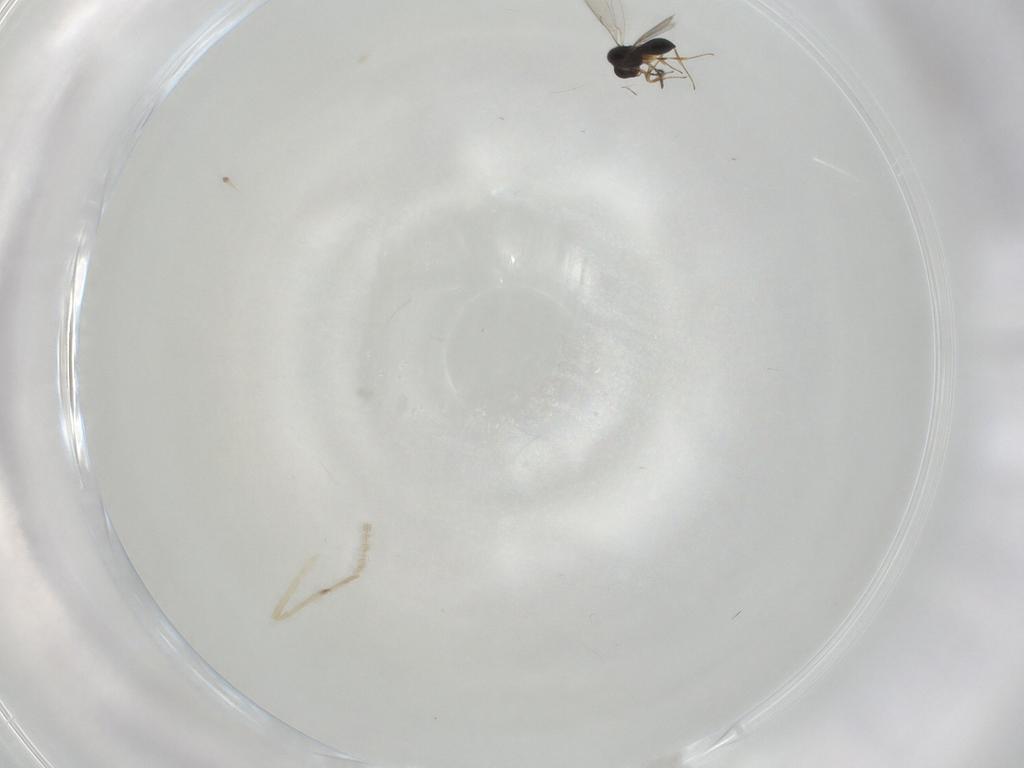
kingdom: Animalia
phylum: Arthropoda
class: Insecta
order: Hymenoptera
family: Scelionidae
